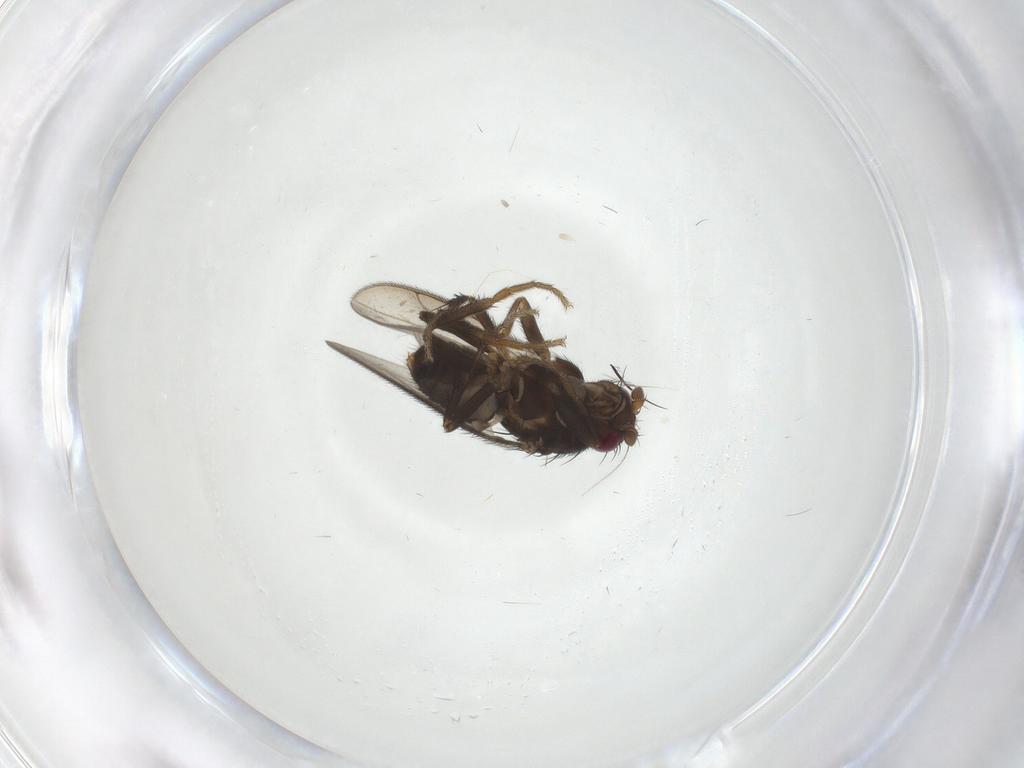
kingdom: Animalia
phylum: Arthropoda
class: Insecta
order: Diptera
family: Sphaeroceridae
